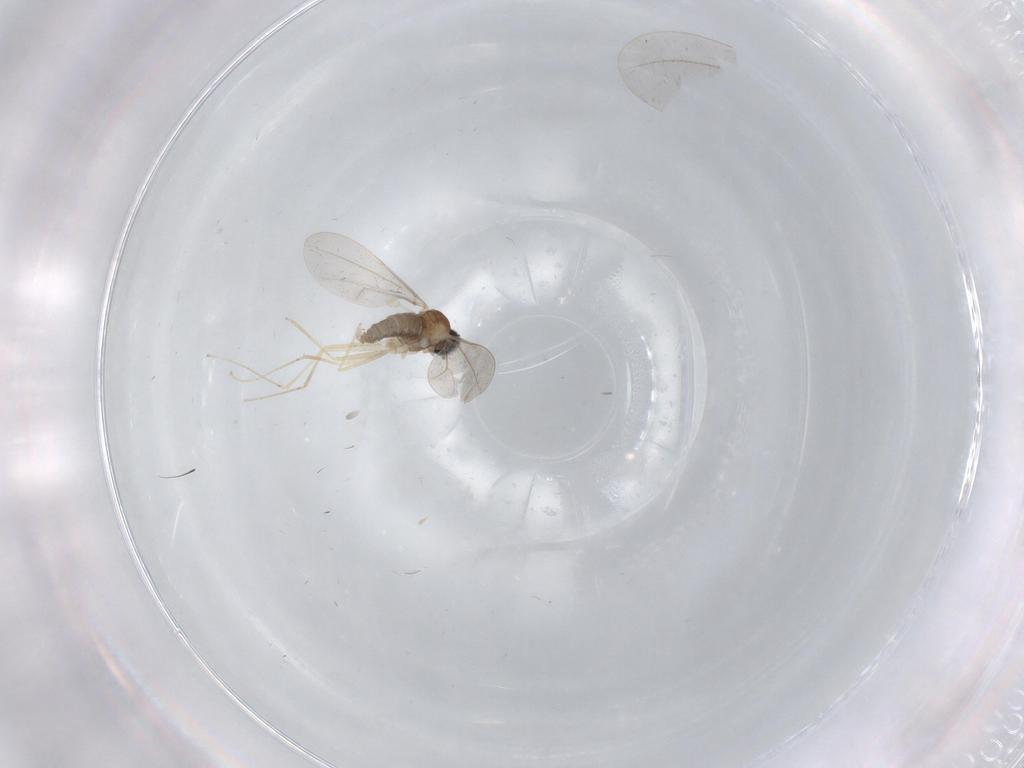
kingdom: Animalia
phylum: Arthropoda
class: Insecta
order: Diptera
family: Cecidomyiidae
